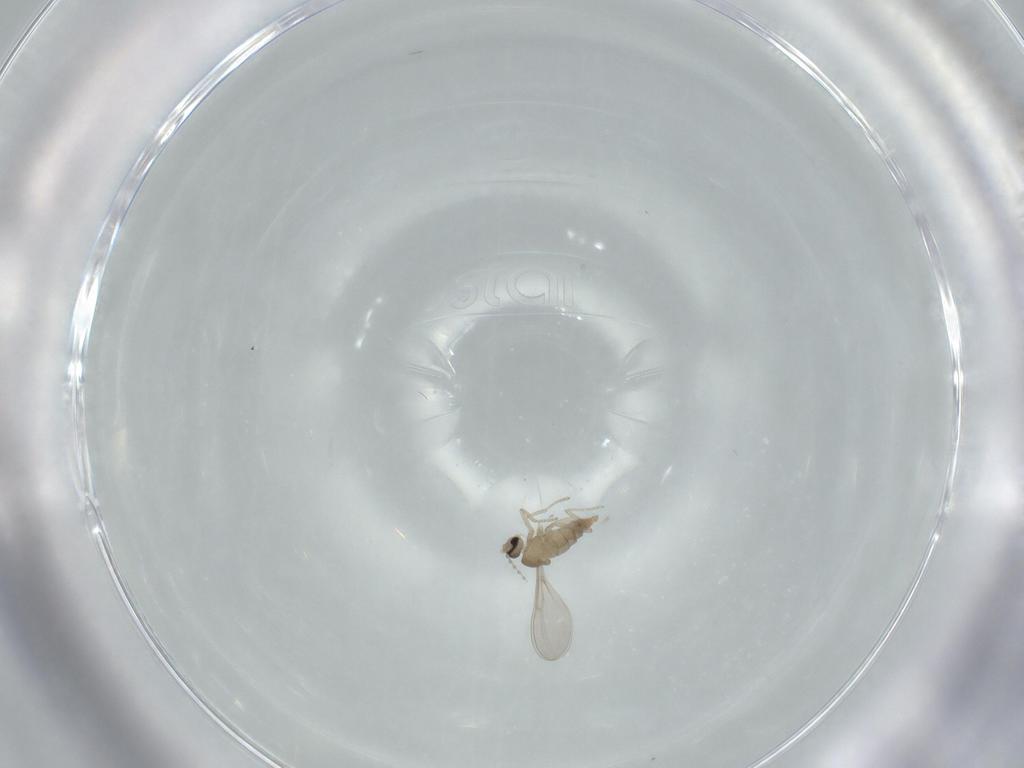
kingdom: Animalia
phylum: Arthropoda
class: Insecta
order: Diptera
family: Cecidomyiidae
